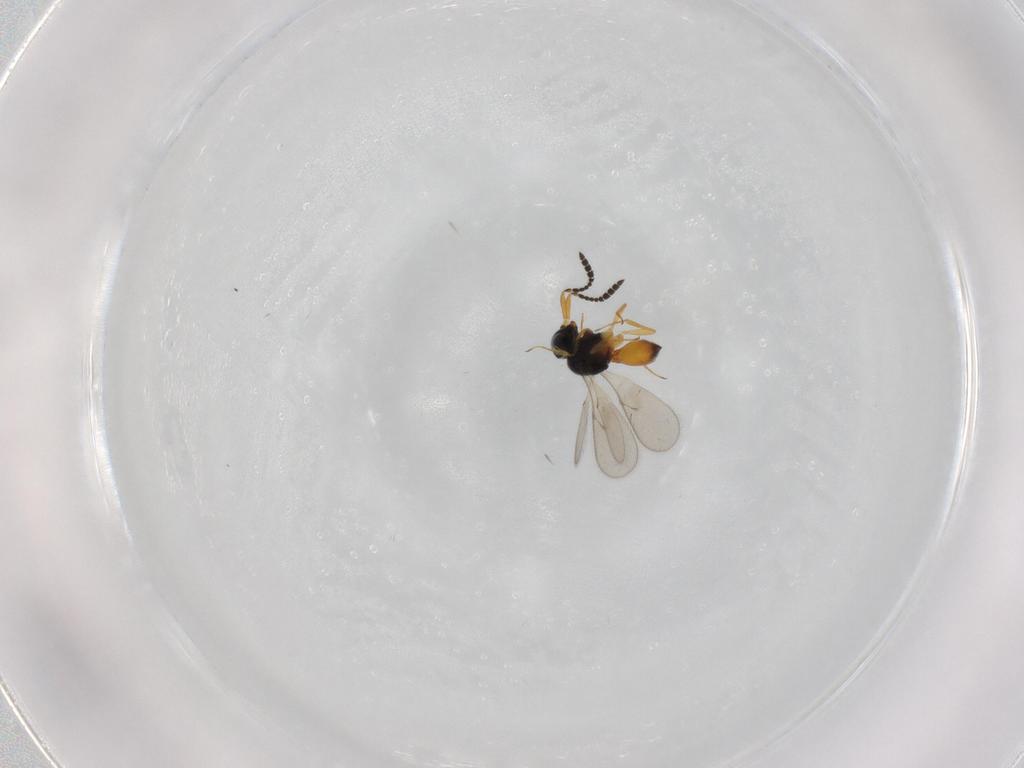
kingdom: Animalia
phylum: Arthropoda
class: Insecta
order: Hymenoptera
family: Scelionidae
